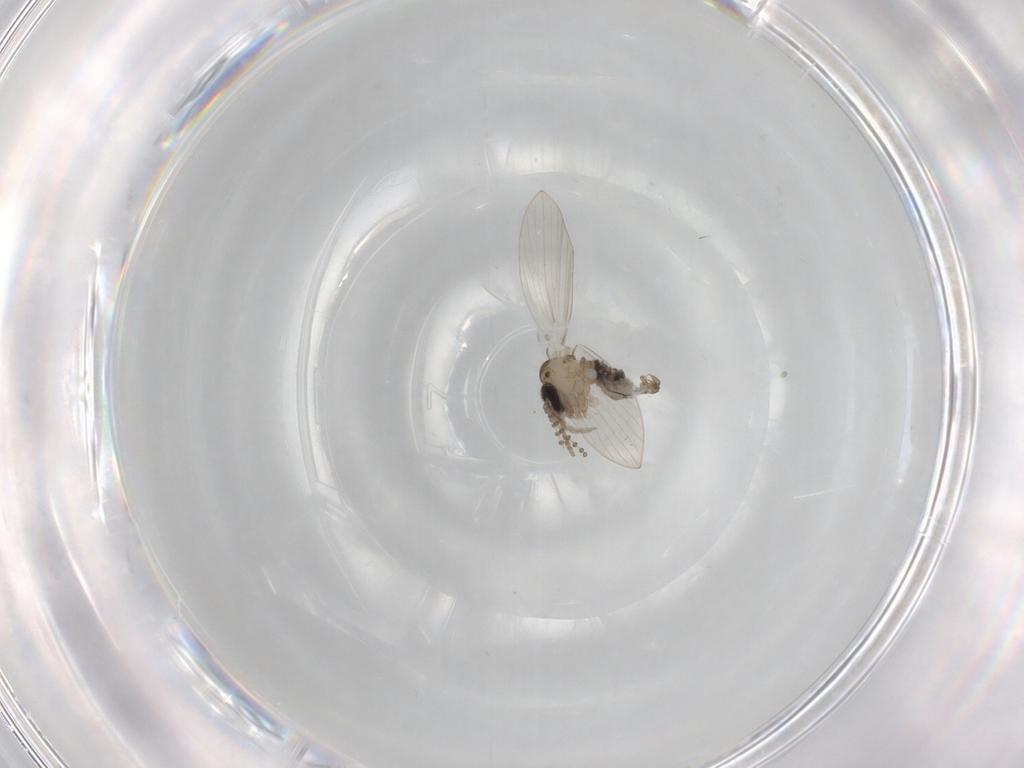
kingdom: Animalia
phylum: Arthropoda
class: Insecta
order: Diptera
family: Psychodidae
